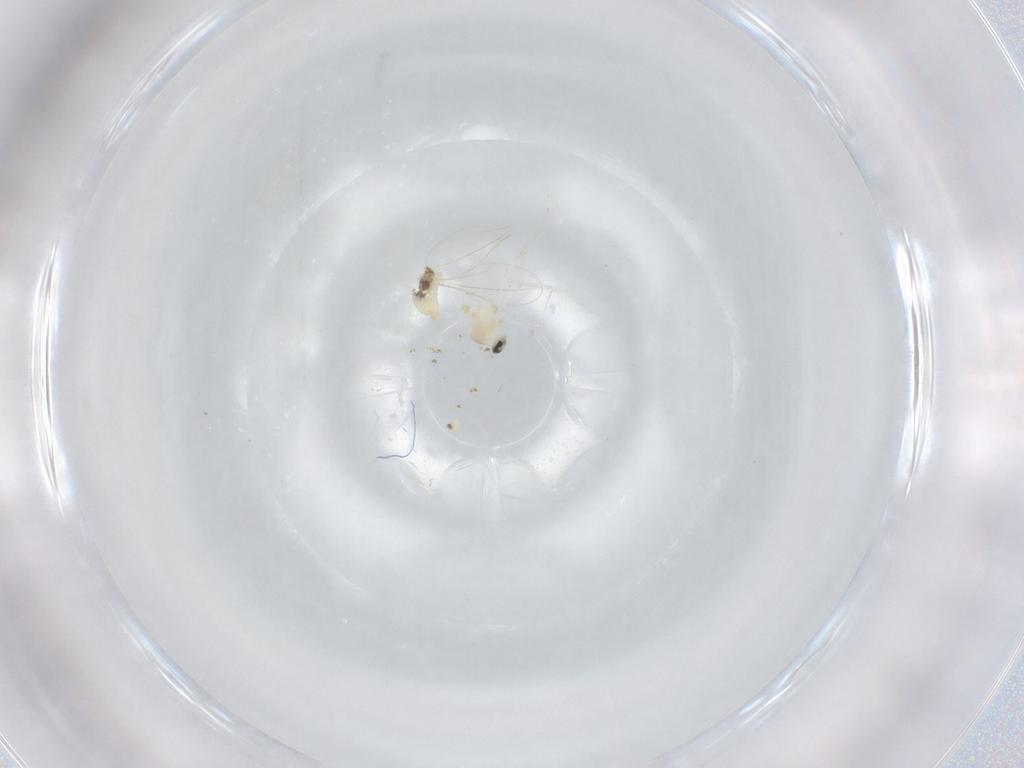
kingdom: Animalia
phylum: Arthropoda
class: Insecta
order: Diptera
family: Cecidomyiidae
